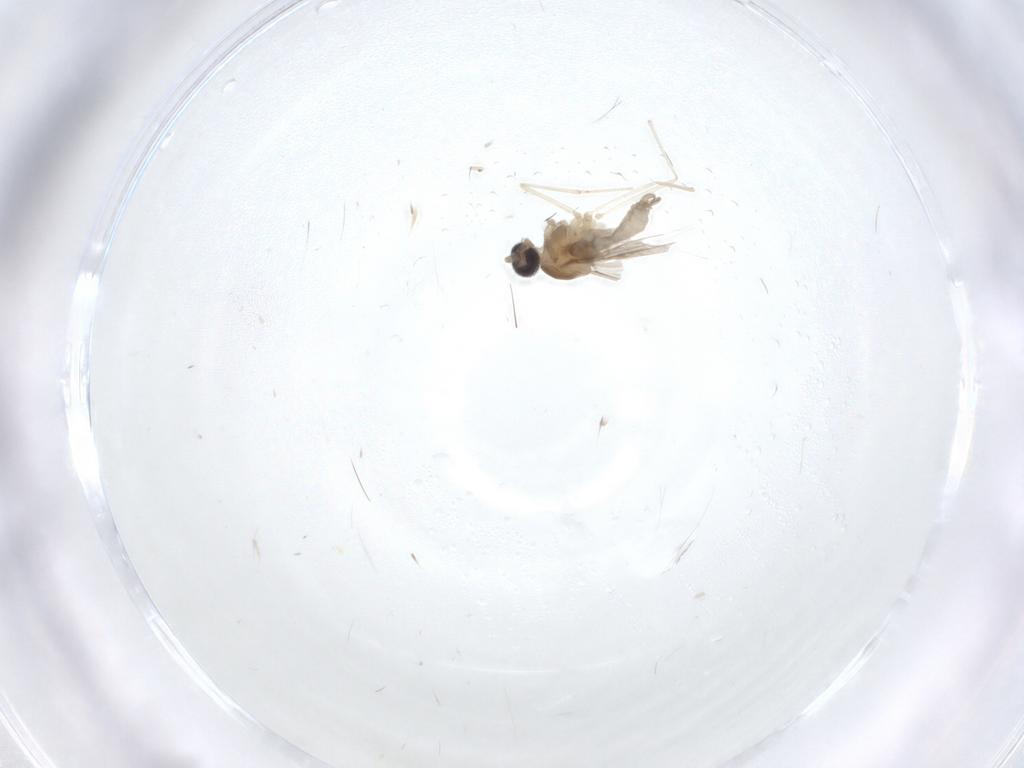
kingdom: Animalia
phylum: Arthropoda
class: Insecta
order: Diptera
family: Cecidomyiidae
